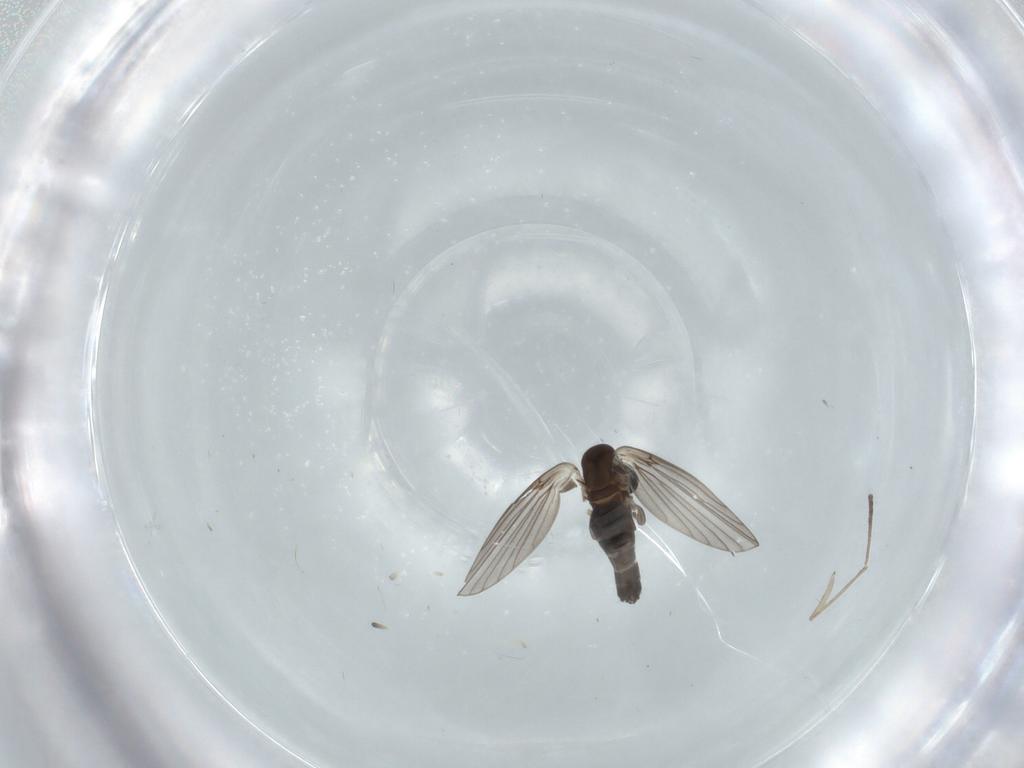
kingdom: Animalia
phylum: Arthropoda
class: Insecta
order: Diptera
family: Psychodidae
